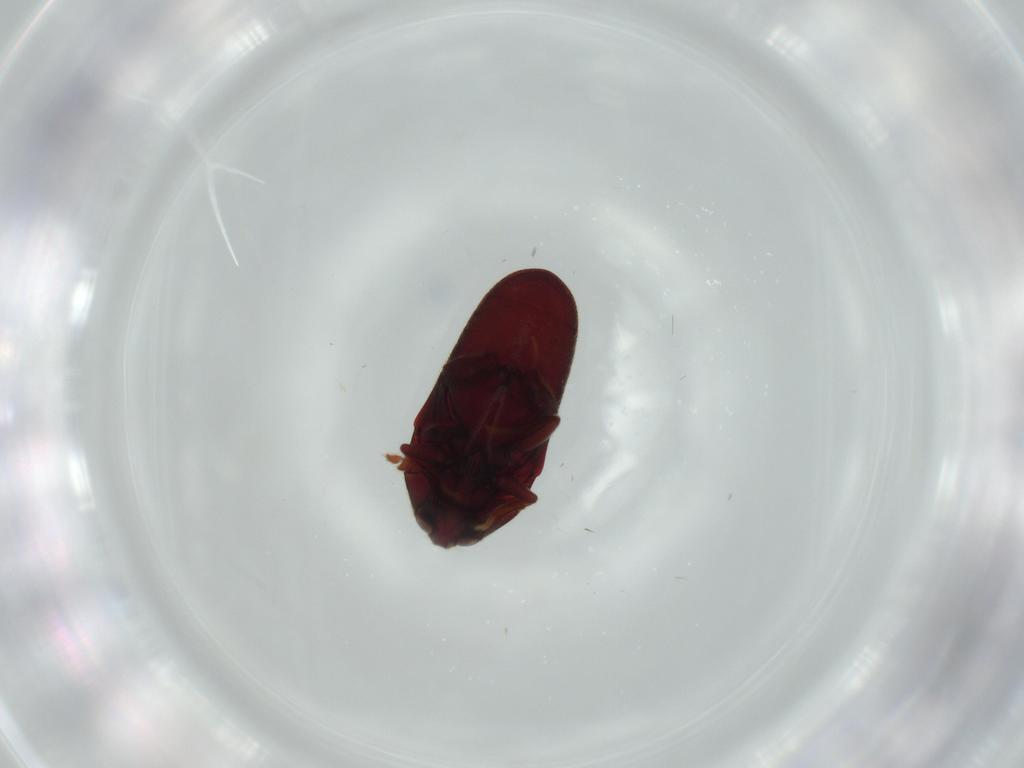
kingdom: Animalia
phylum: Arthropoda
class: Insecta
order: Coleoptera
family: Throscidae
